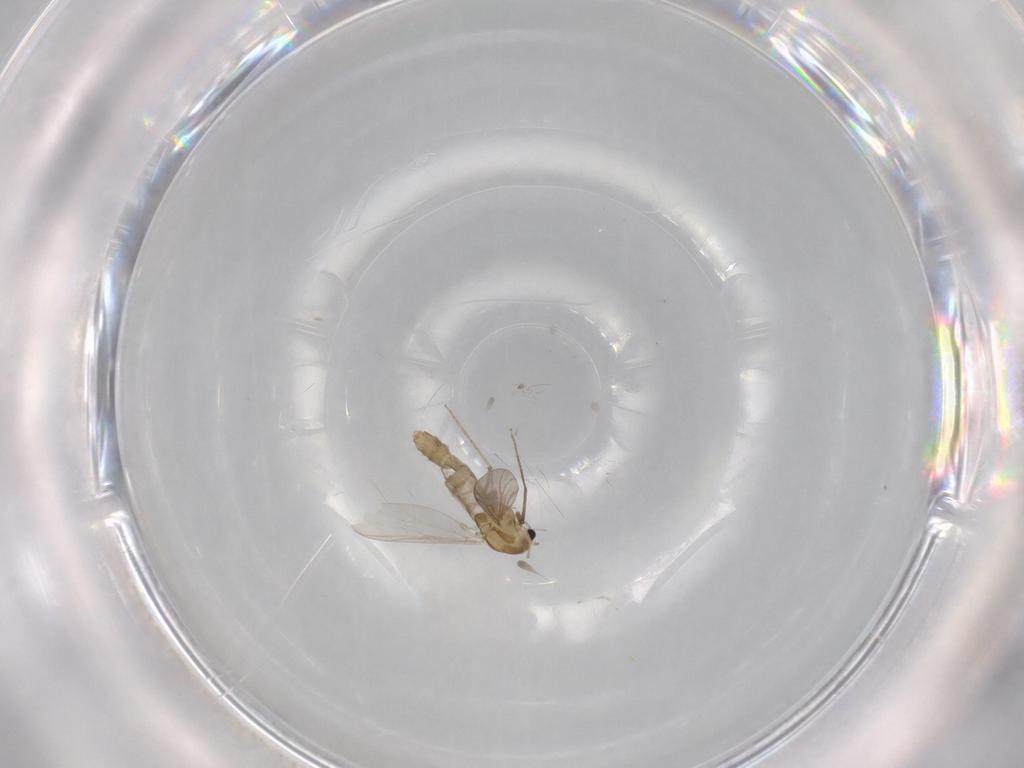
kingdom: Animalia
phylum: Arthropoda
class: Insecta
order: Diptera
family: Chironomidae
